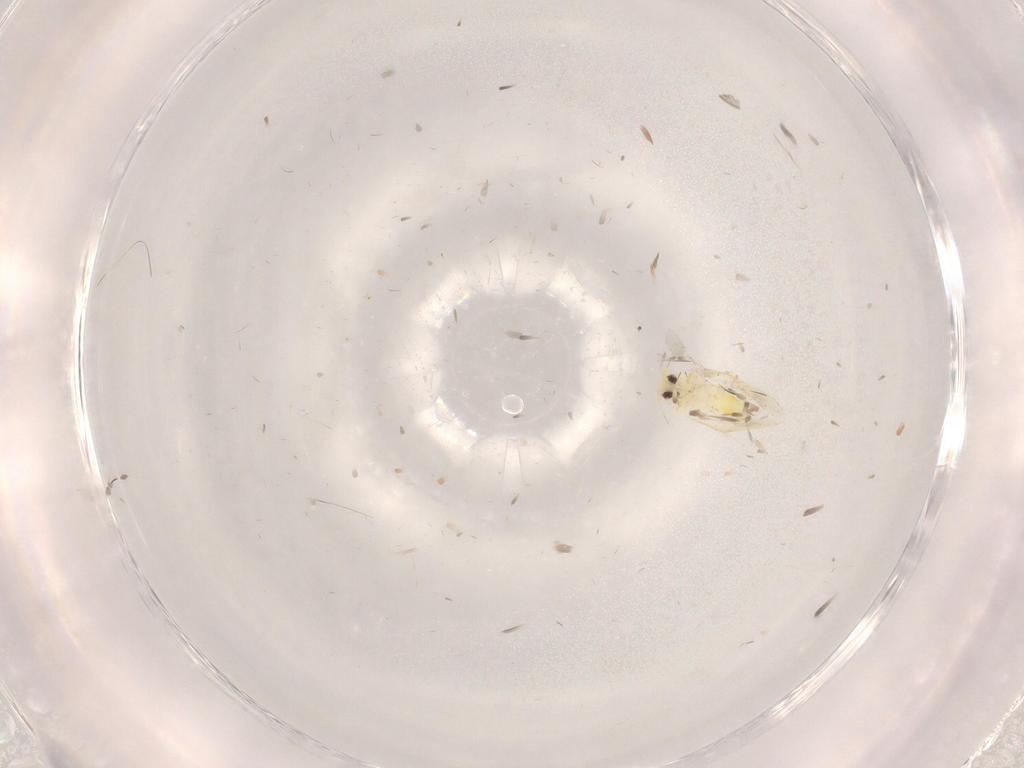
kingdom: Animalia
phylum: Arthropoda
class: Insecta
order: Hemiptera
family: Aleyrodidae
